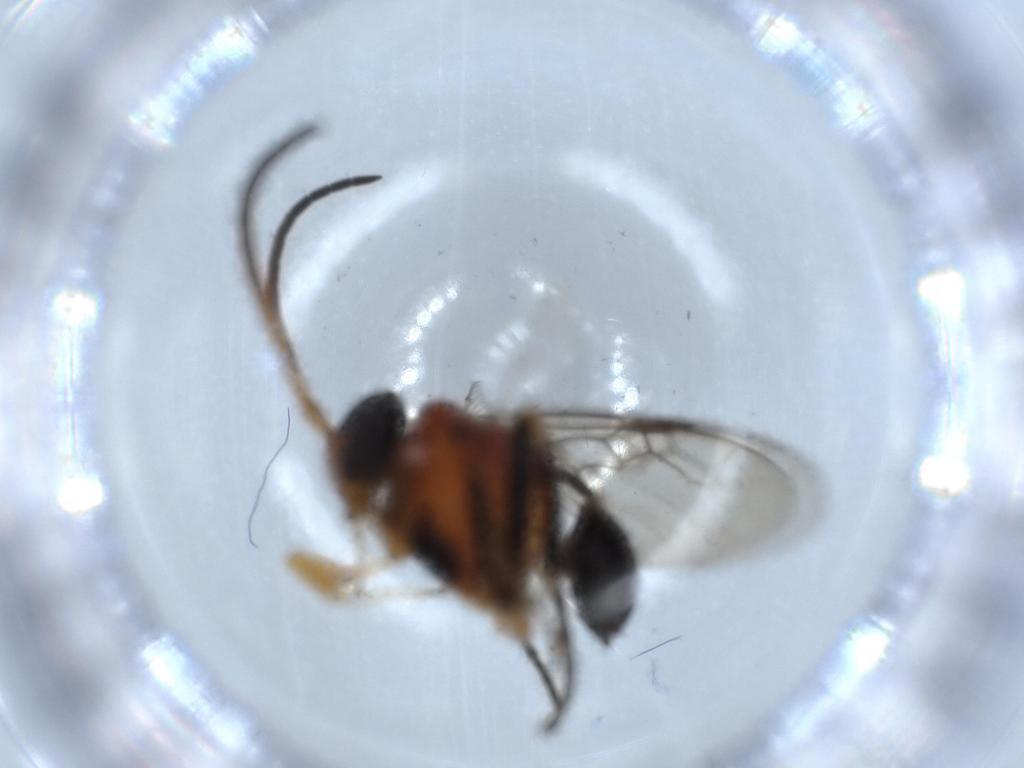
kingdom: Animalia
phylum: Arthropoda
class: Insecta
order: Hymenoptera
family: Evaniidae
